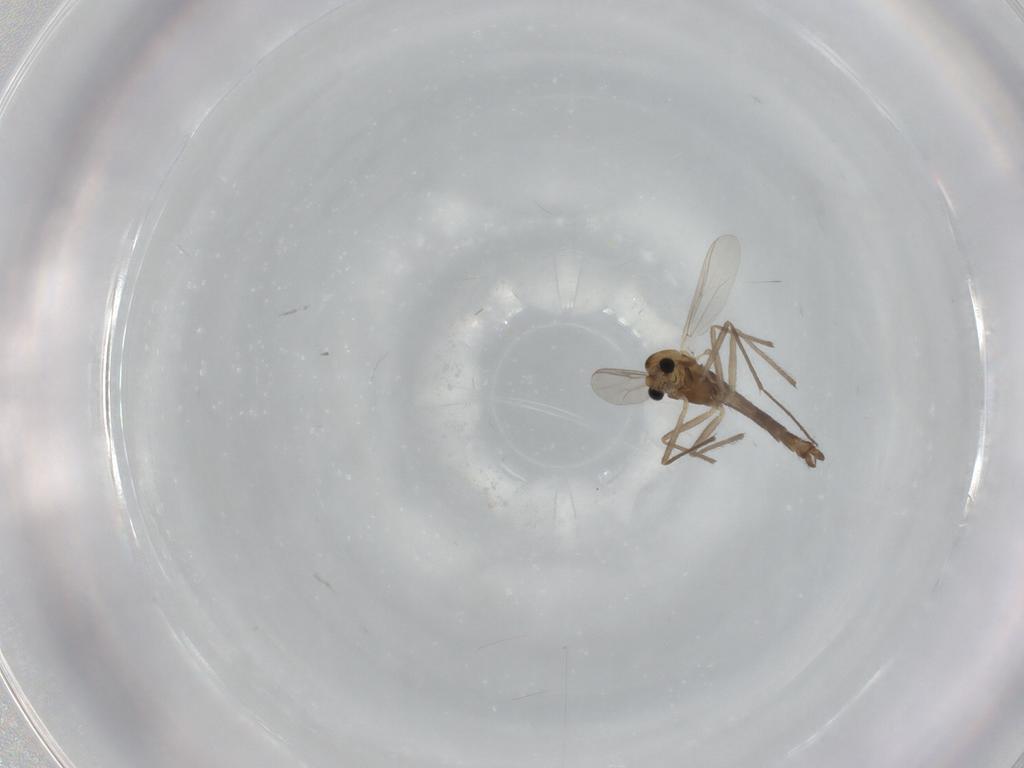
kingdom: Animalia
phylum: Arthropoda
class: Insecta
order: Diptera
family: Chironomidae
